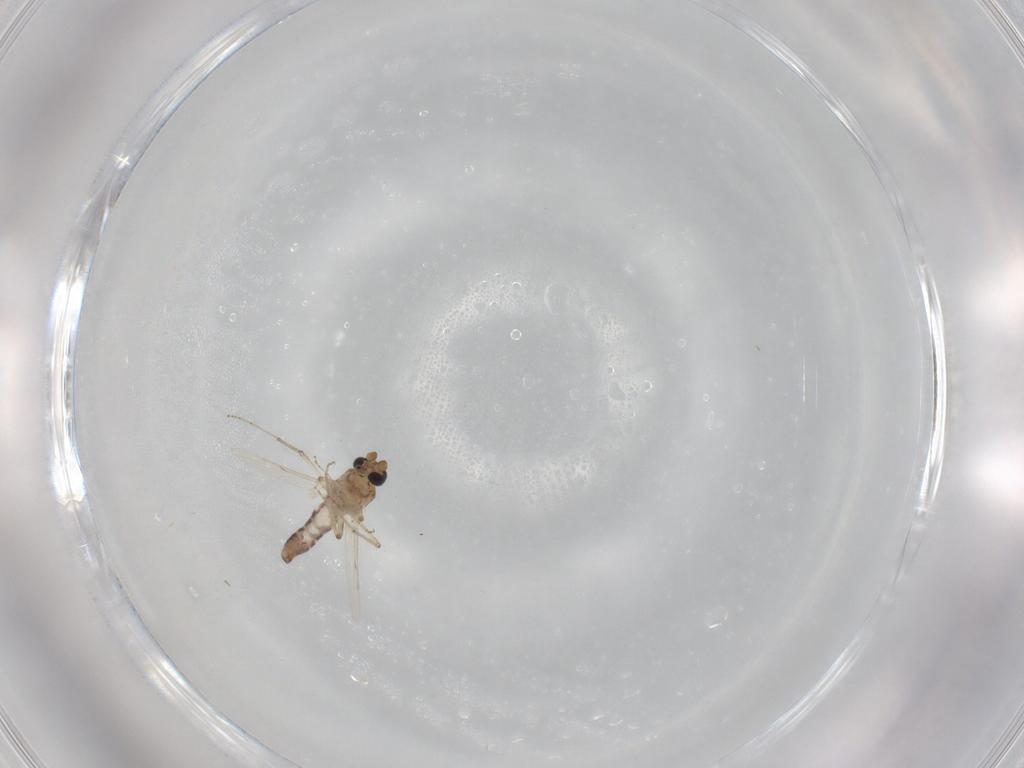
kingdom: Animalia
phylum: Arthropoda
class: Insecta
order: Diptera
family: Ceratopogonidae
